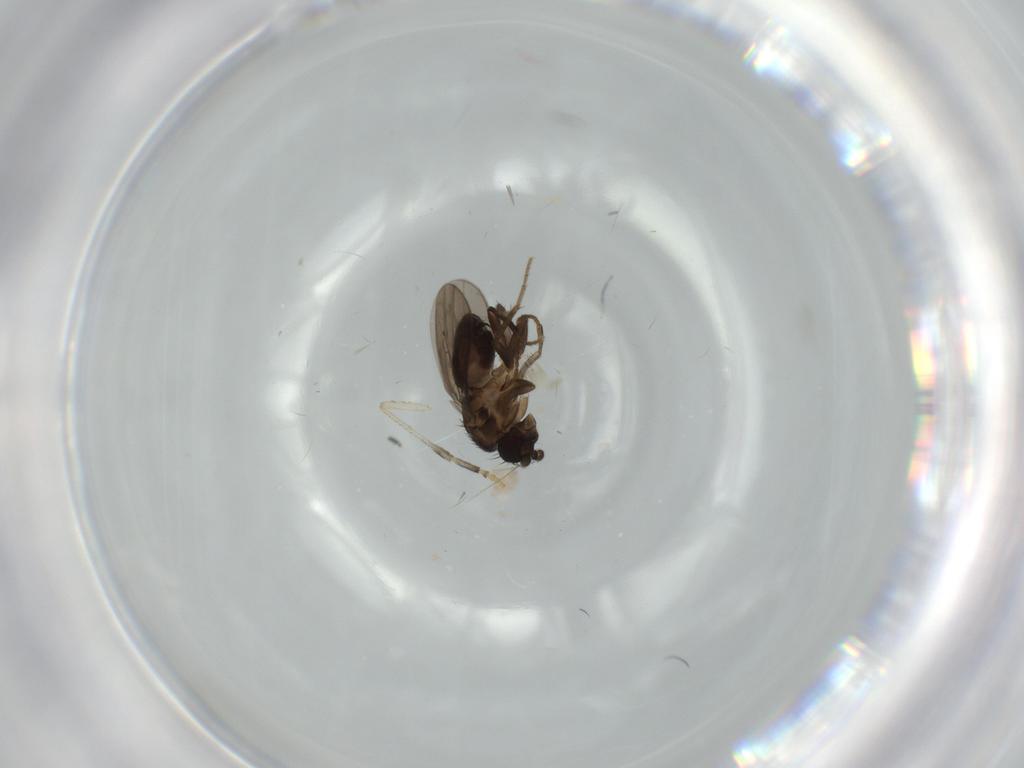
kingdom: Animalia
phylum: Arthropoda
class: Insecta
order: Diptera
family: Sphaeroceridae
